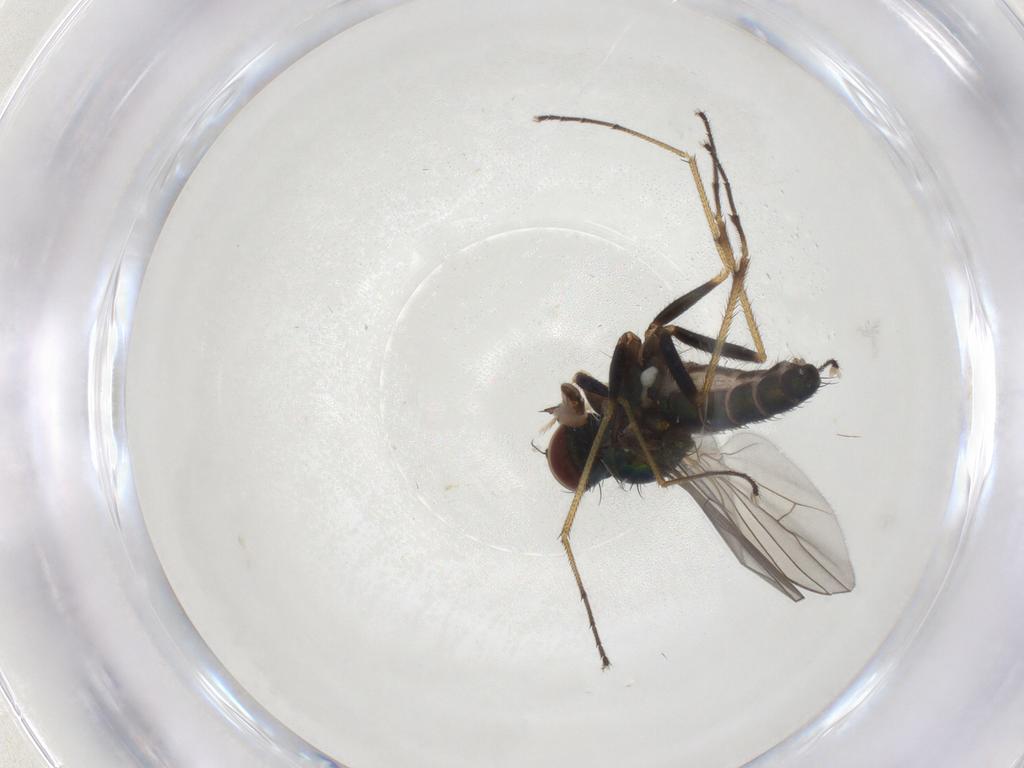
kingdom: Animalia
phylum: Arthropoda
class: Insecta
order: Diptera
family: Dolichopodidae
